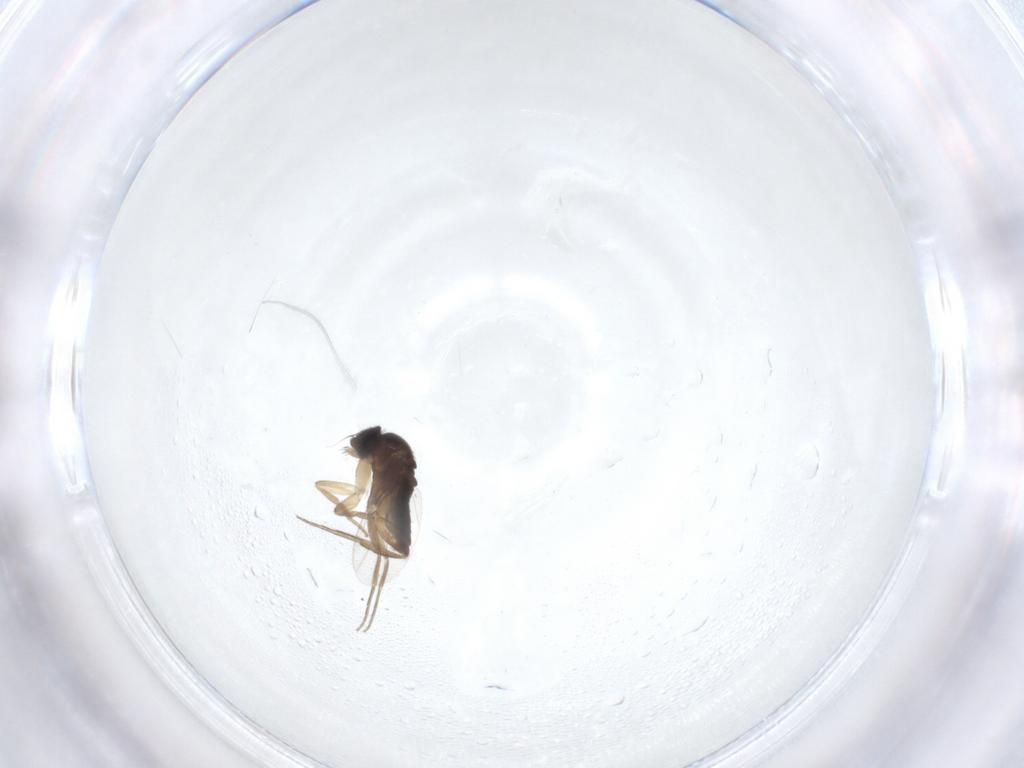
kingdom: Animalia
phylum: Arthropoda
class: Insecta
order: Diptera
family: Phoridae
